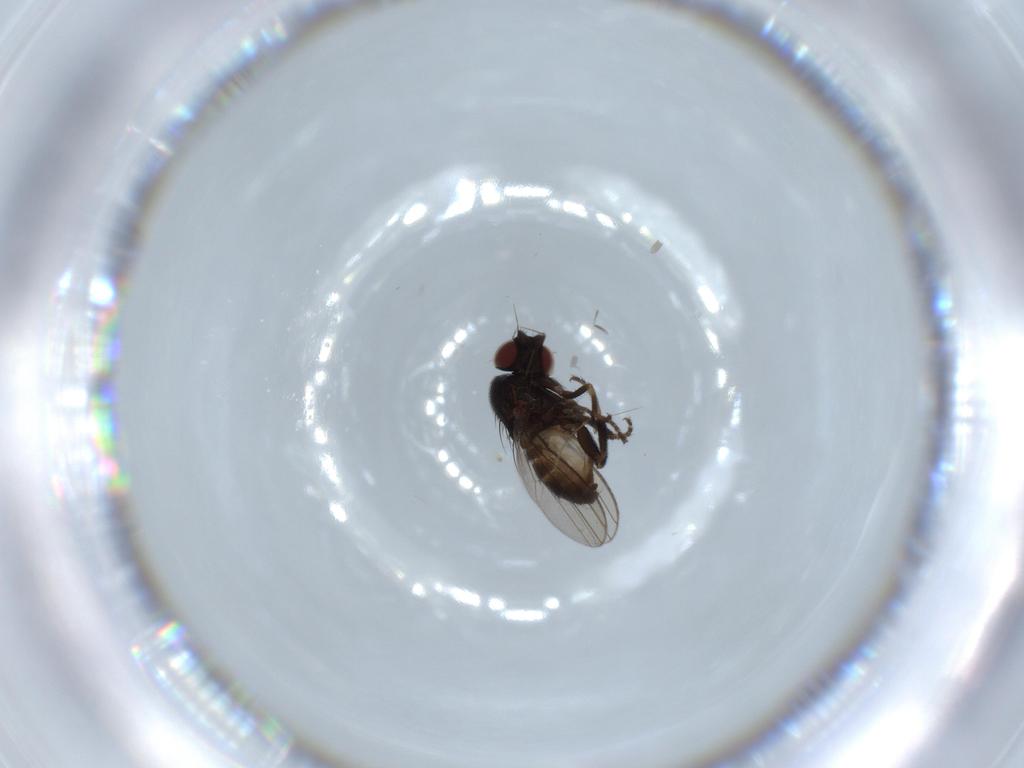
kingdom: Animalia
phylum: Arthropoda
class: Insecta
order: Diptera
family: Milichiidae
